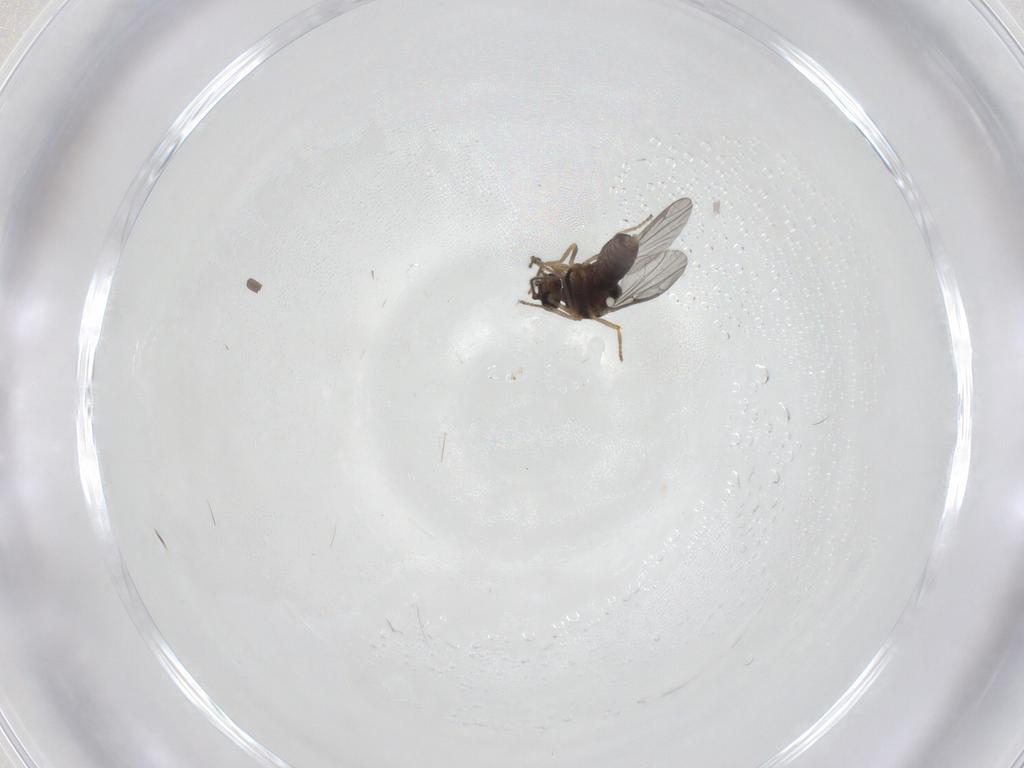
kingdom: Animalia
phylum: Arthropoda
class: Insecta
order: Diptera
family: Ceratopogonidae
